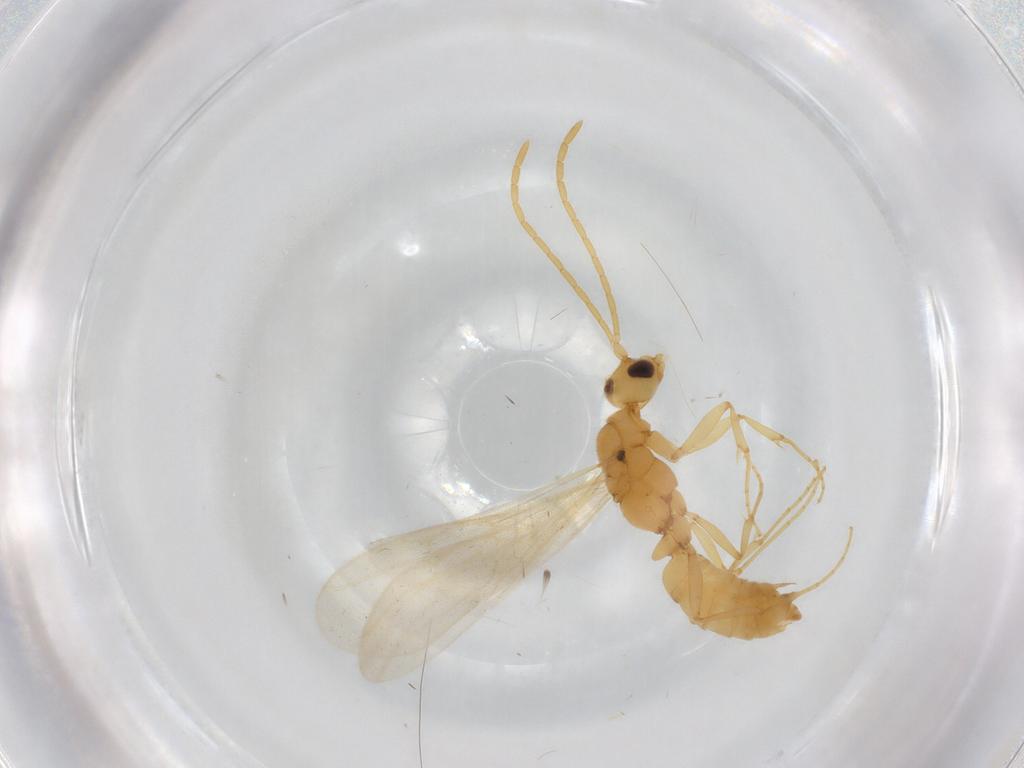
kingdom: Animalia
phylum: Arthropoda
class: Insecta
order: Hymenoptera
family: Formicidae
